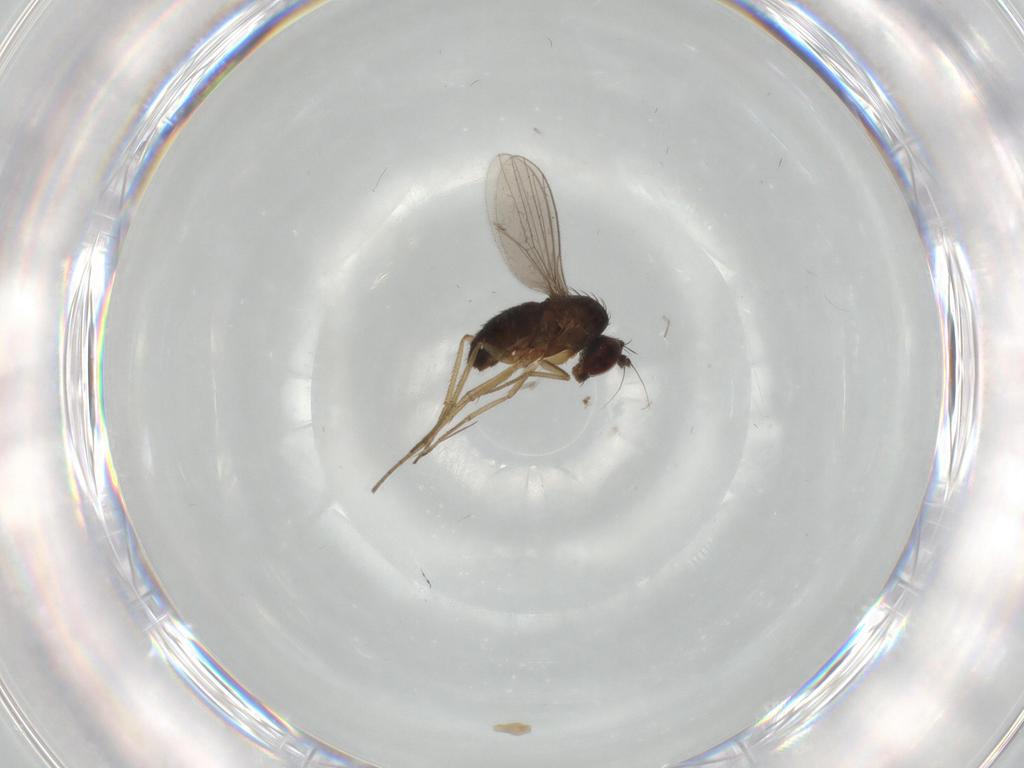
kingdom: Animalia
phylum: Arthropoda
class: Insecta
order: Diptera
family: Phoridae
